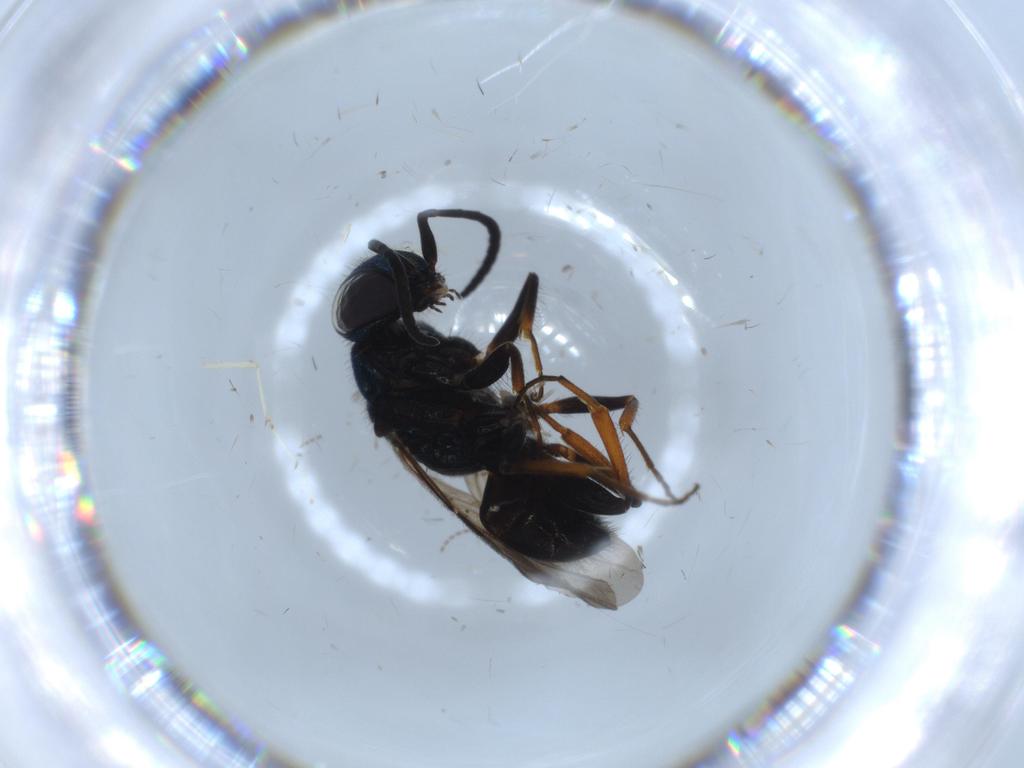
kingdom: Animalia
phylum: Arthropoda
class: Insecta
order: Hymenoptera
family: Chrysididae
